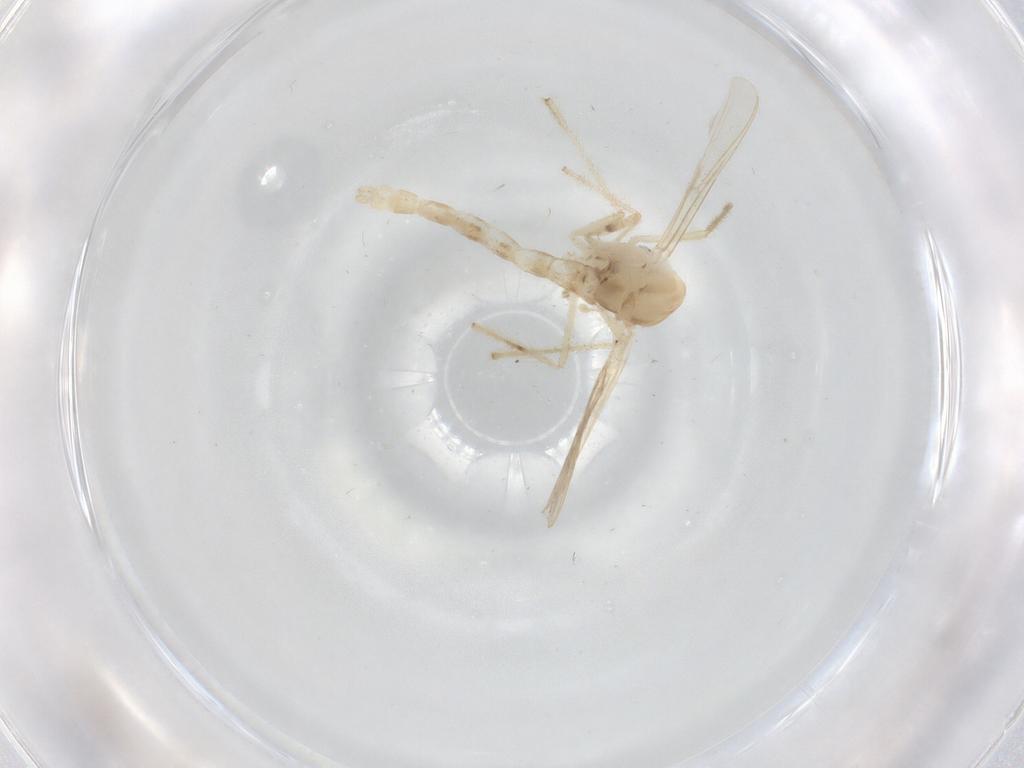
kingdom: Animalia
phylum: Arthropoda
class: Insecta
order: Diptera
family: Chironomidae
